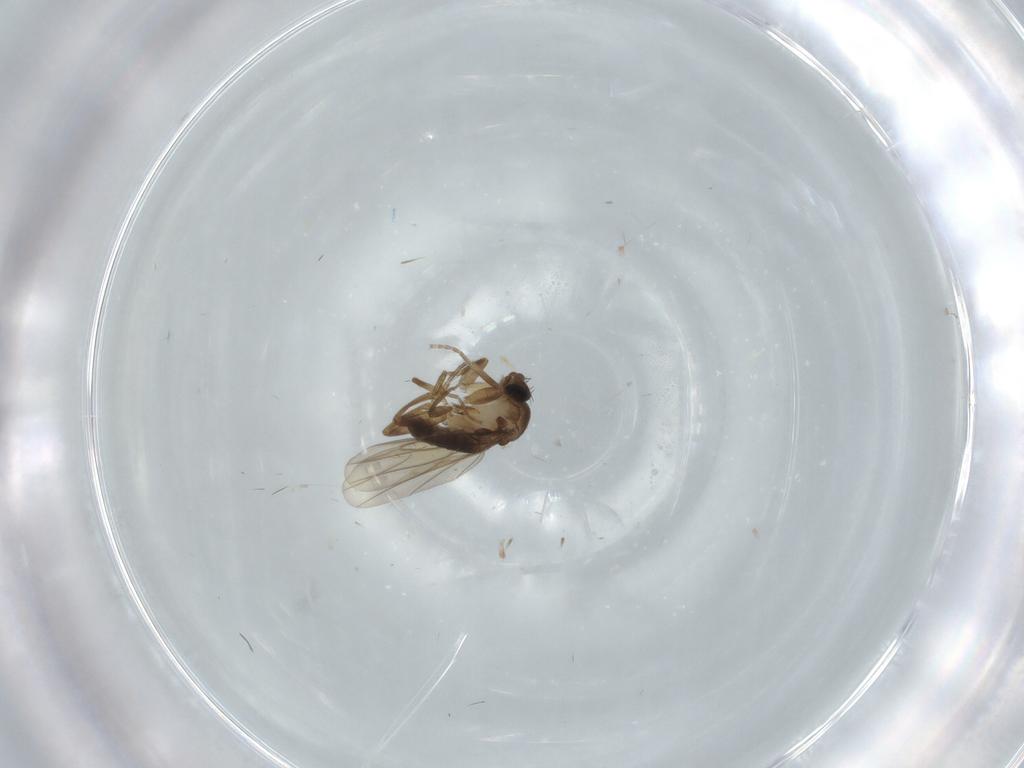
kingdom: Animalia
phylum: Arthropoda
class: Insecta
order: Diptera
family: Phoridae
